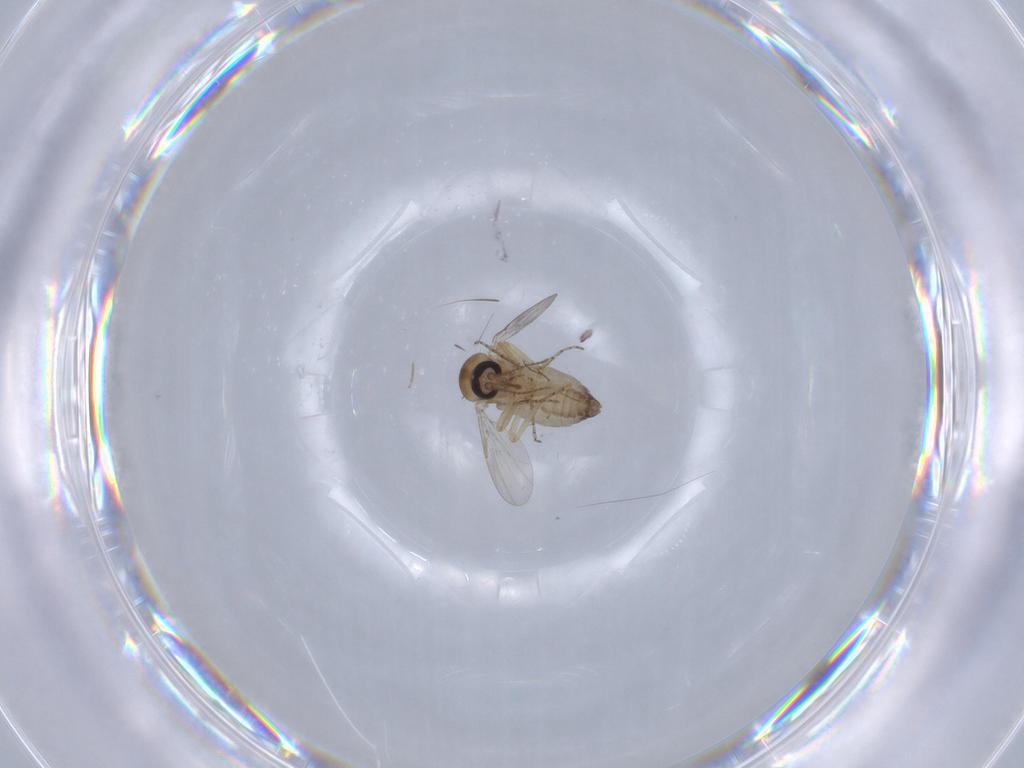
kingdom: Animalia
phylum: Arthropoda
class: Insecta
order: Diptera
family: Ceratopogonidae
